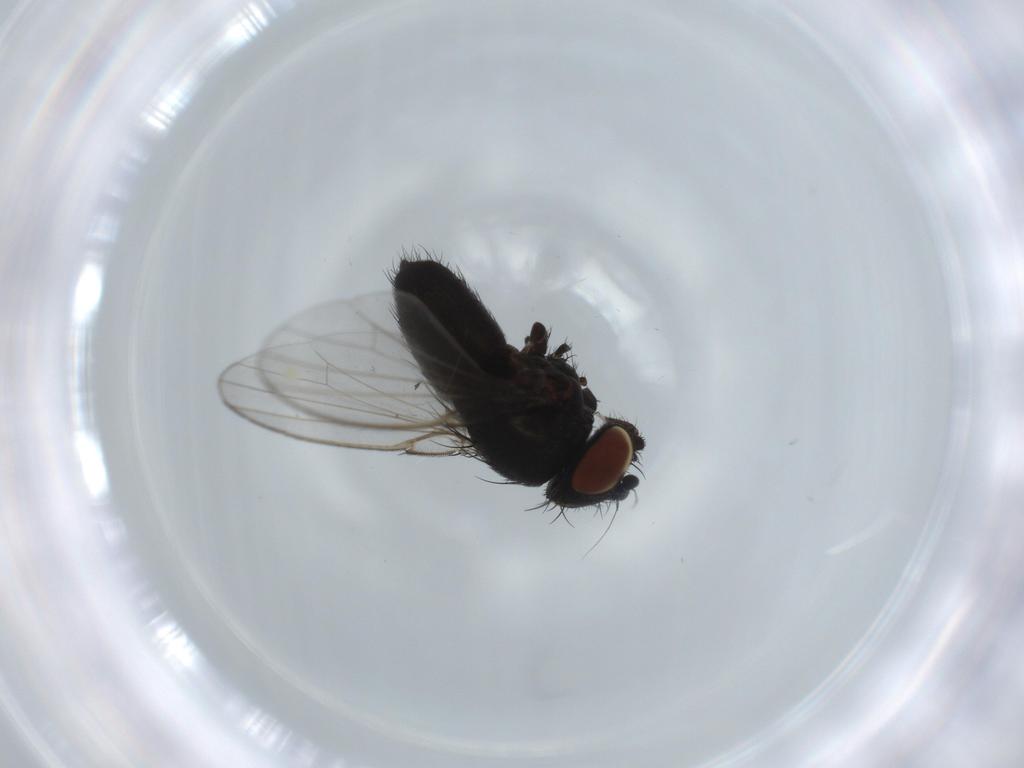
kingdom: Animalia
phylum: Arthropoda
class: Insecta
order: Diptera
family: Milichiidae
